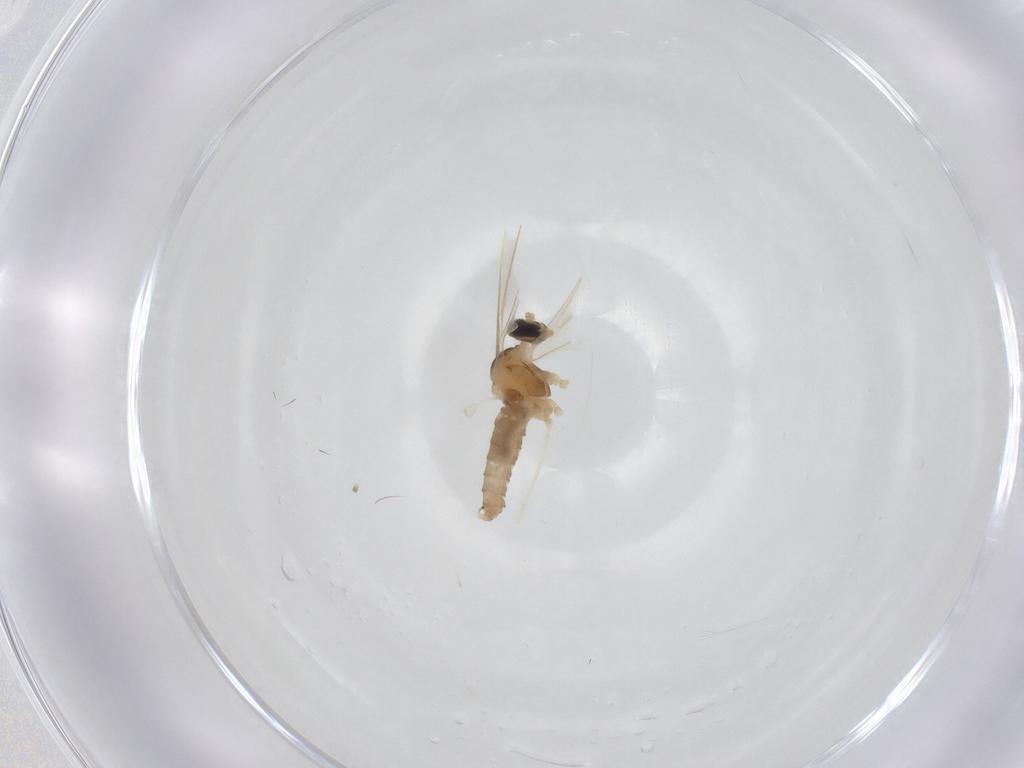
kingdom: Animalia
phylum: Arthropoda
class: Insecta
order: Diptera
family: Cecidomyiidae
